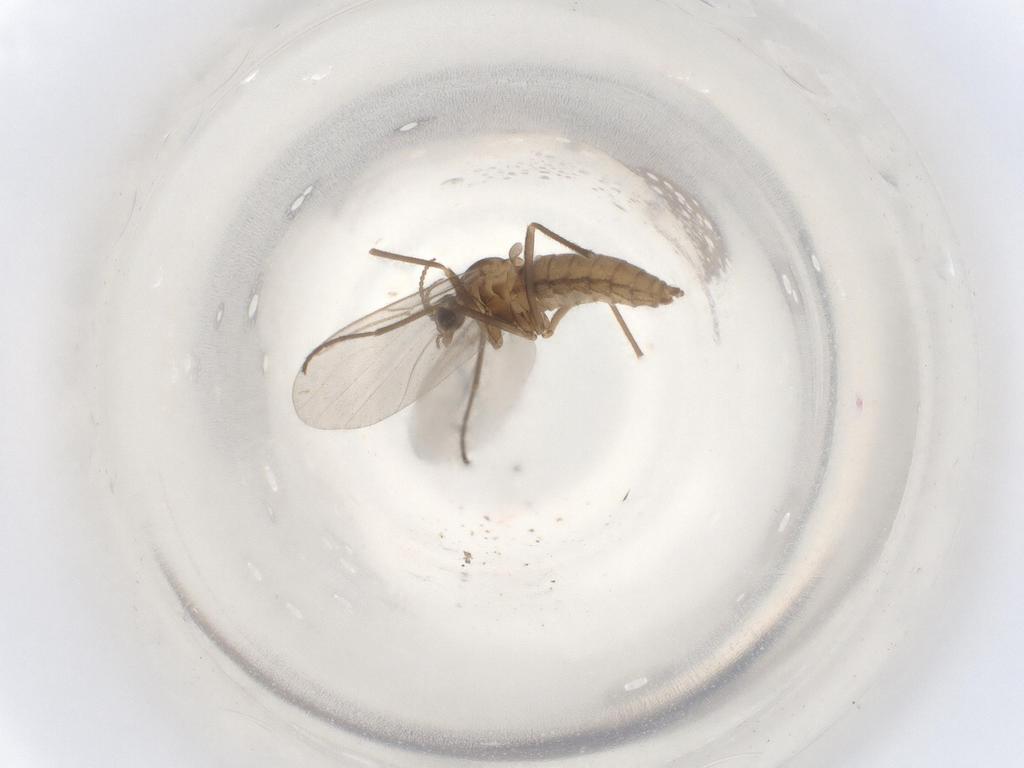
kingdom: Animalia
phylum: Arthropoda
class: Insecta
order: Diptera
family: Cecidomyiidae
